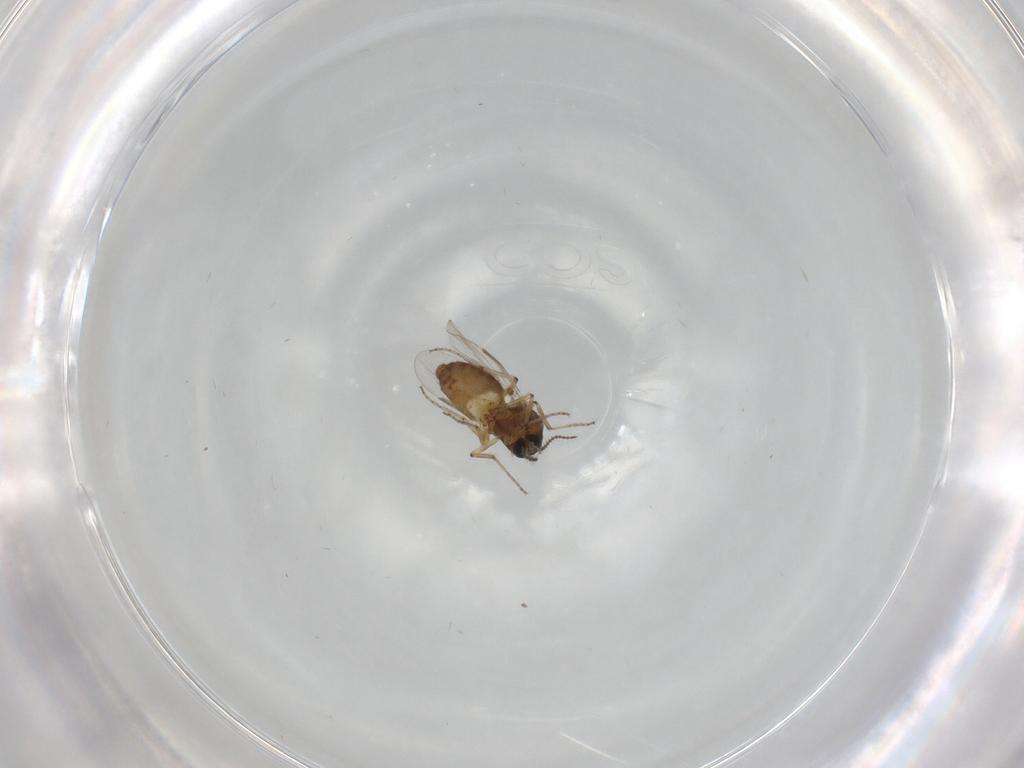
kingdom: Animalia
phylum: Arthropoda
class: Insecta
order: Diptera
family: Ceratopogonidae
